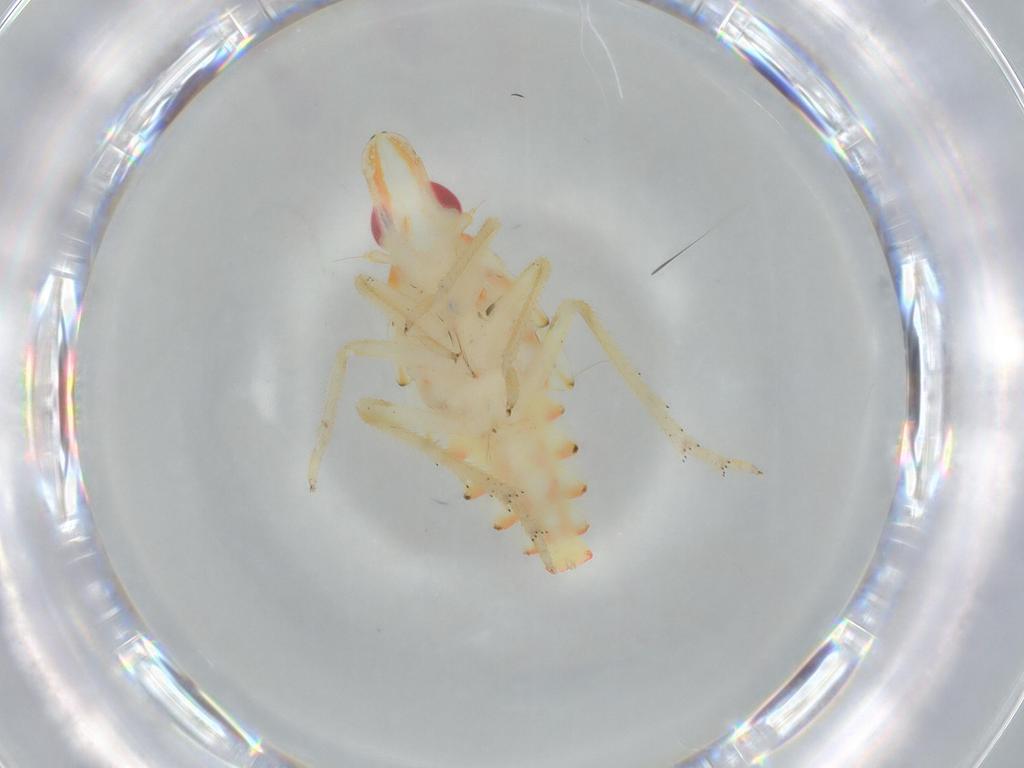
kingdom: Animalia
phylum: Arthropoda
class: Insecta
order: Hemiptera
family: Tropiduchidae
